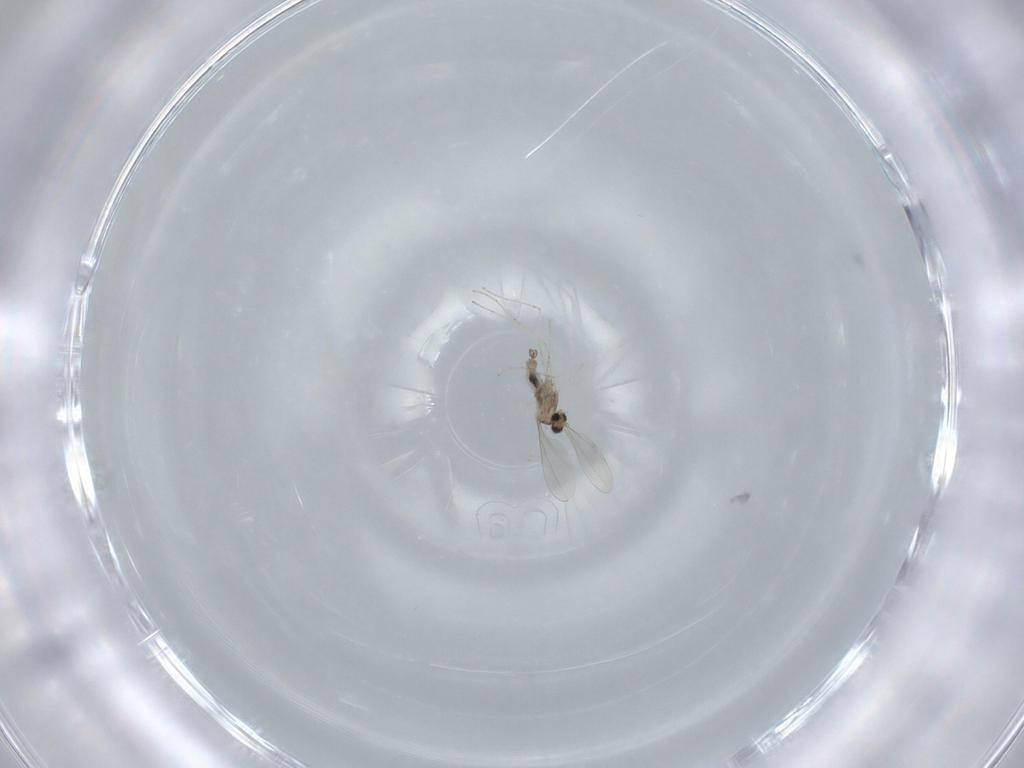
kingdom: Animalia
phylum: Arthropoda
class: Insecta
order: Diptera
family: Cecidomyiidae
